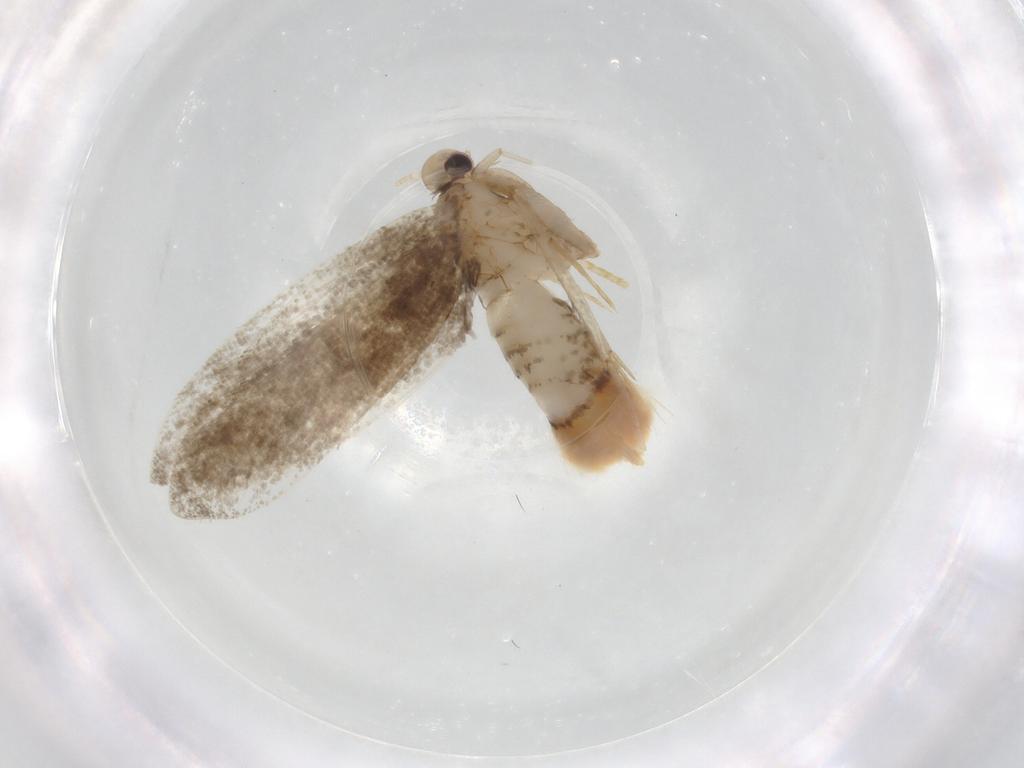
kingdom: Animalia
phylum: Arthropoda
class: Insecta
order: Lepidoptera
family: Psychidae
